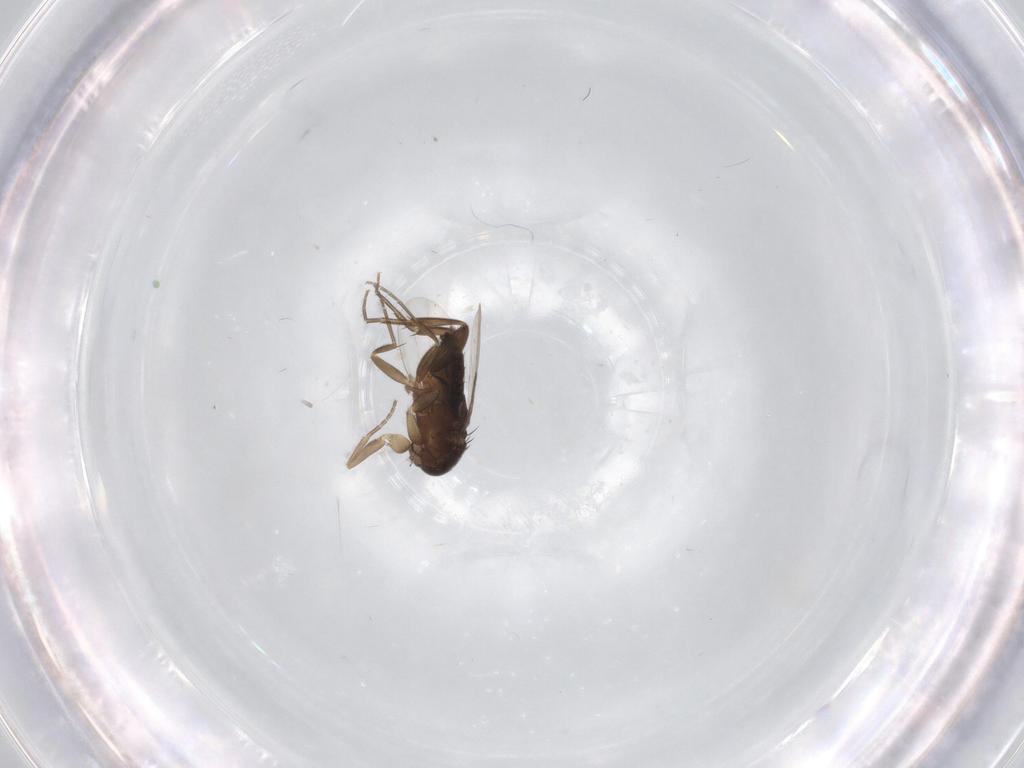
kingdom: Animalia
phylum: Arthropoda
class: Insecta
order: Diptera
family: Phoridae
